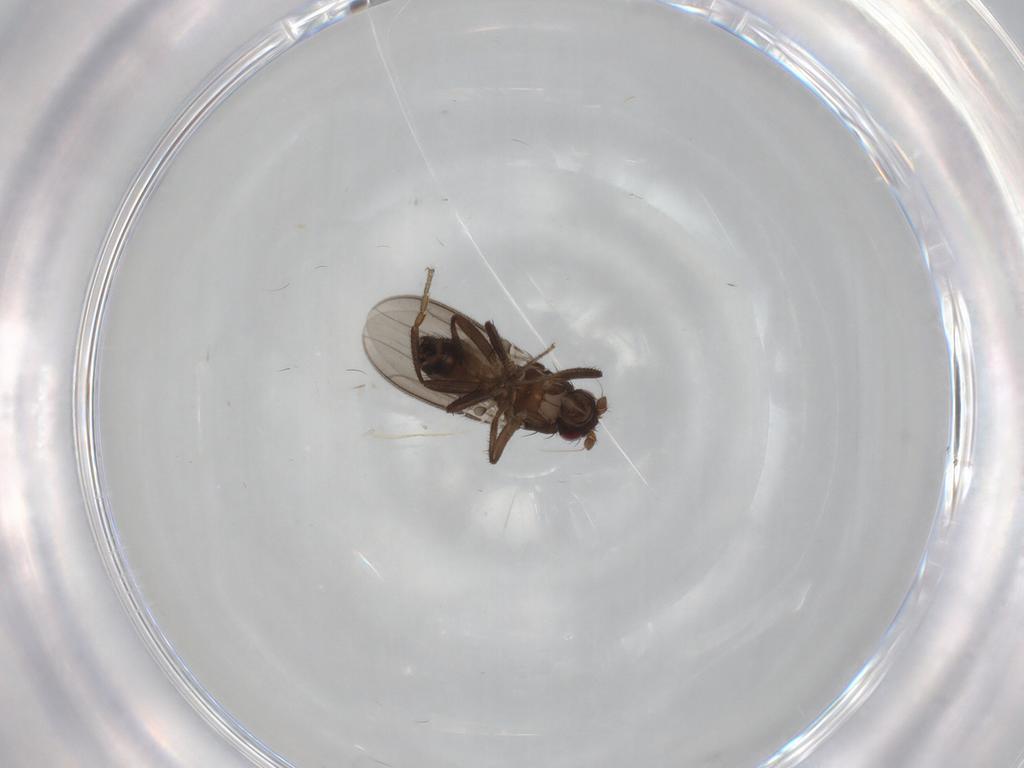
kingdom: Animalia
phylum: Arthropoda
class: Insecta
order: Diptera
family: Sphaeroceridae
